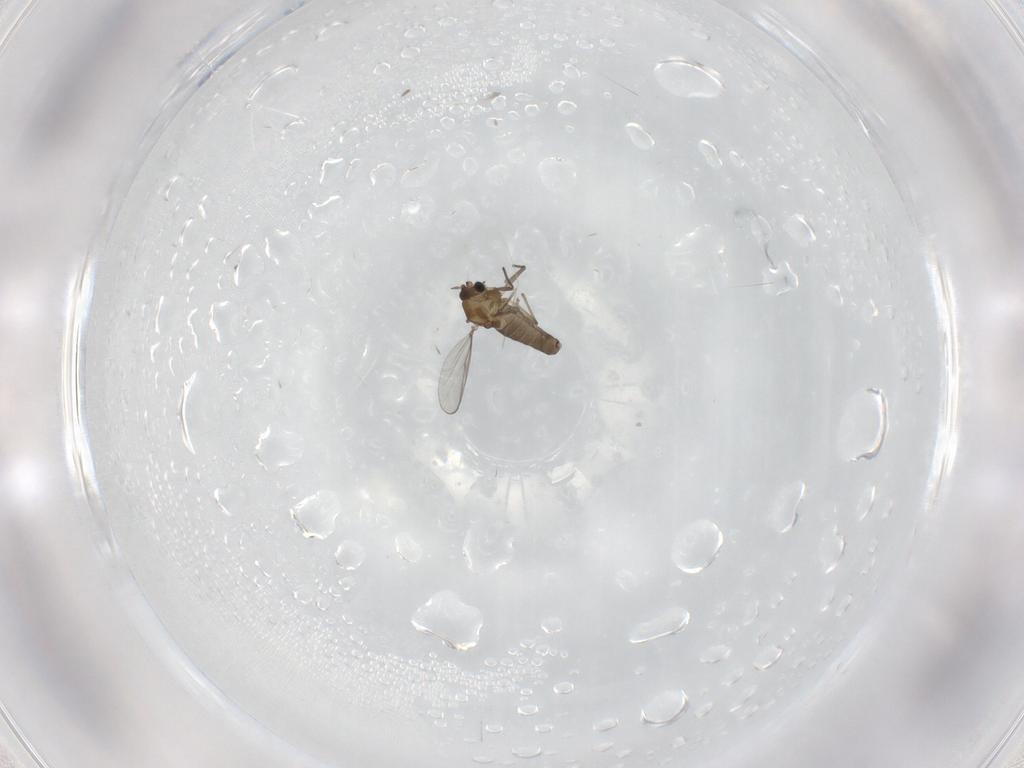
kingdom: Animalia
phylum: Arthropoda
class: Insecta
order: Diptera
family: Chironomidae
